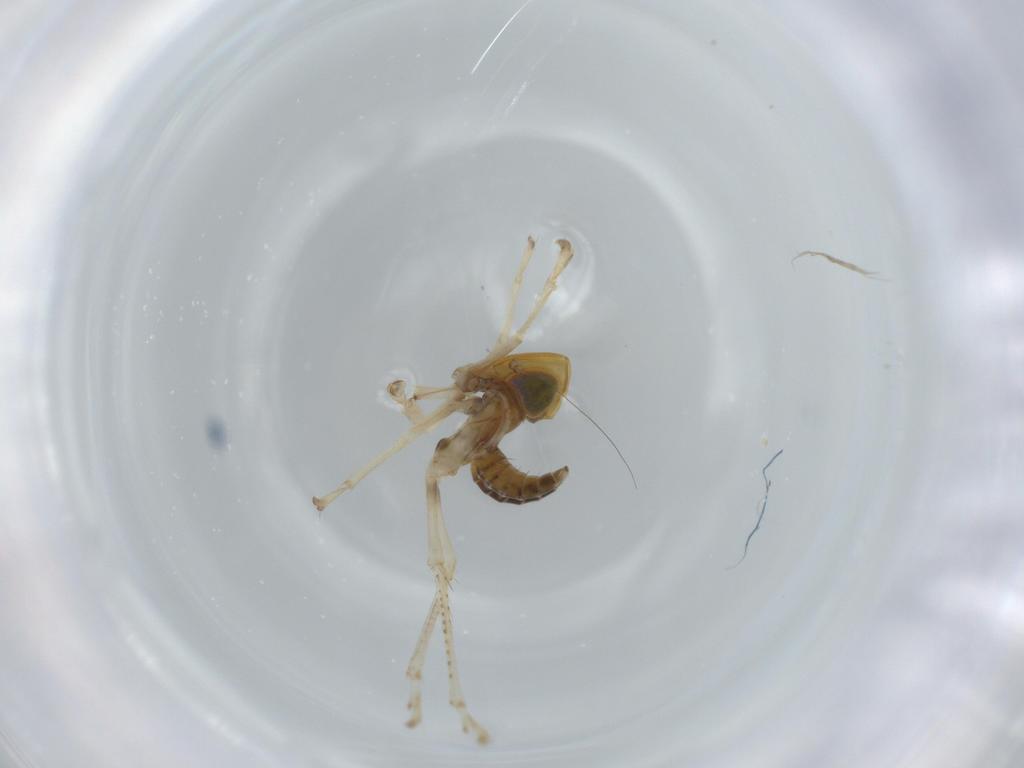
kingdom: Animalia
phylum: Arthropoda
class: Insecta
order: Hemiptera
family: Cicadellidae
